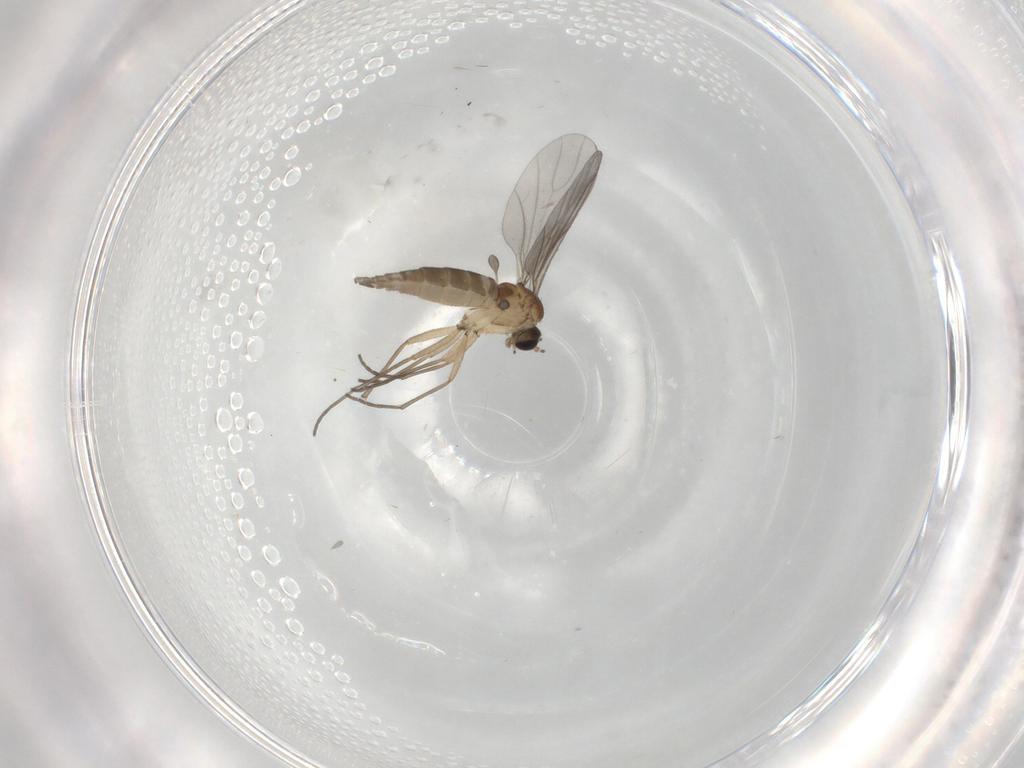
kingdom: Animalia
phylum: Arthropoda
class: Insecta
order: Diptera
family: Sciaridae
